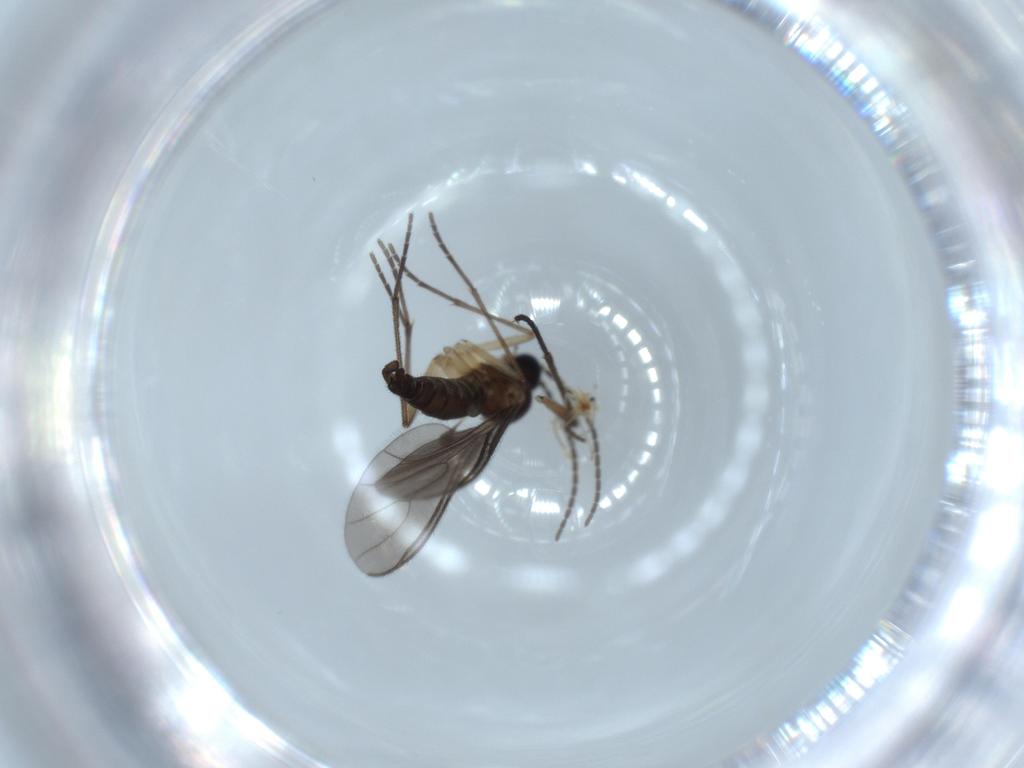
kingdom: Animalia
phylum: Arthropoda
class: Insecta
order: Diptera
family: Sciaridae
